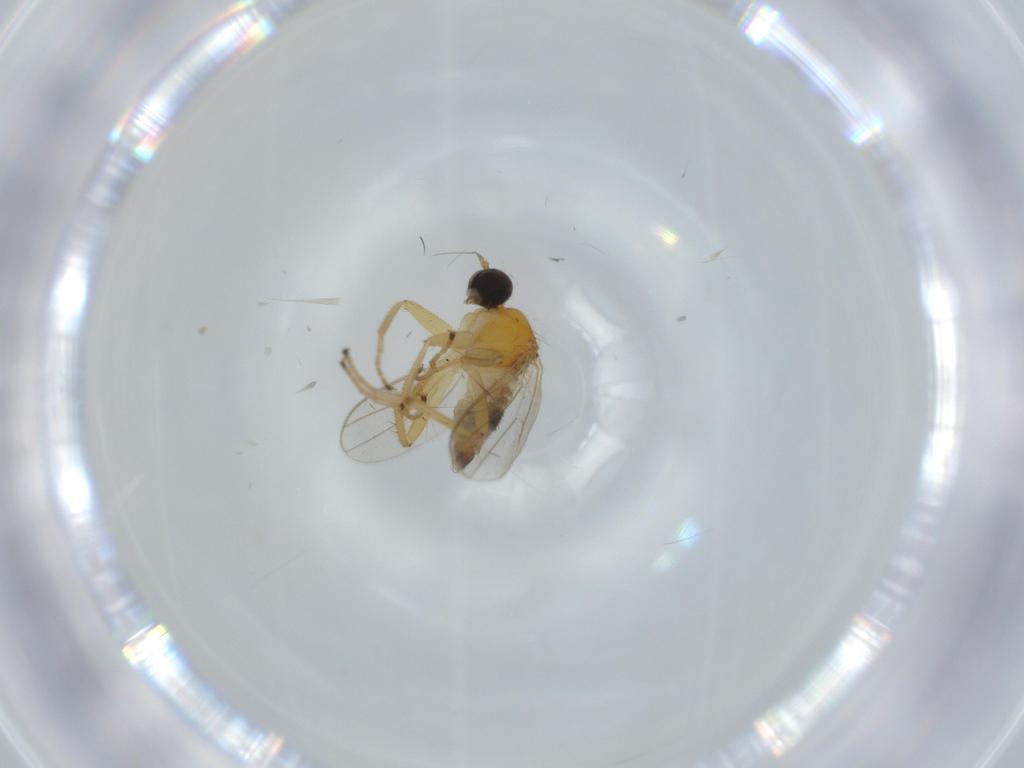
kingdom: Animalia
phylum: Arthropoda
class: Insecta
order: Diptera
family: Hybotidae
